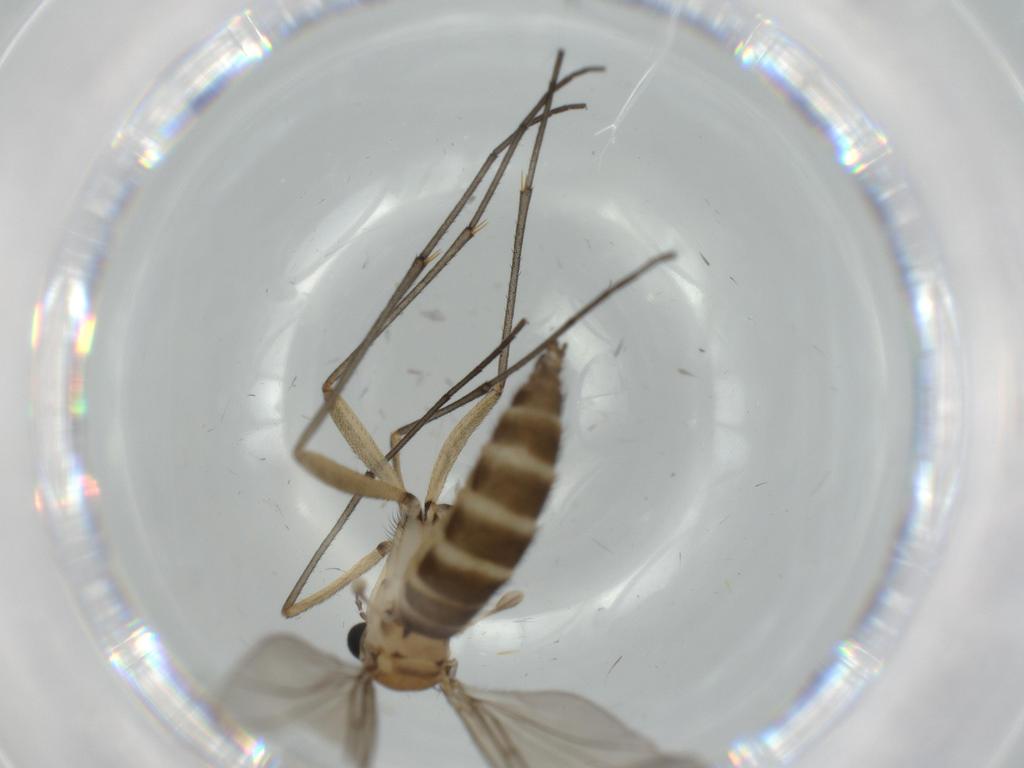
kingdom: Animalia
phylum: Arthropoda
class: Insecta
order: Diptera
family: Sciaridae
